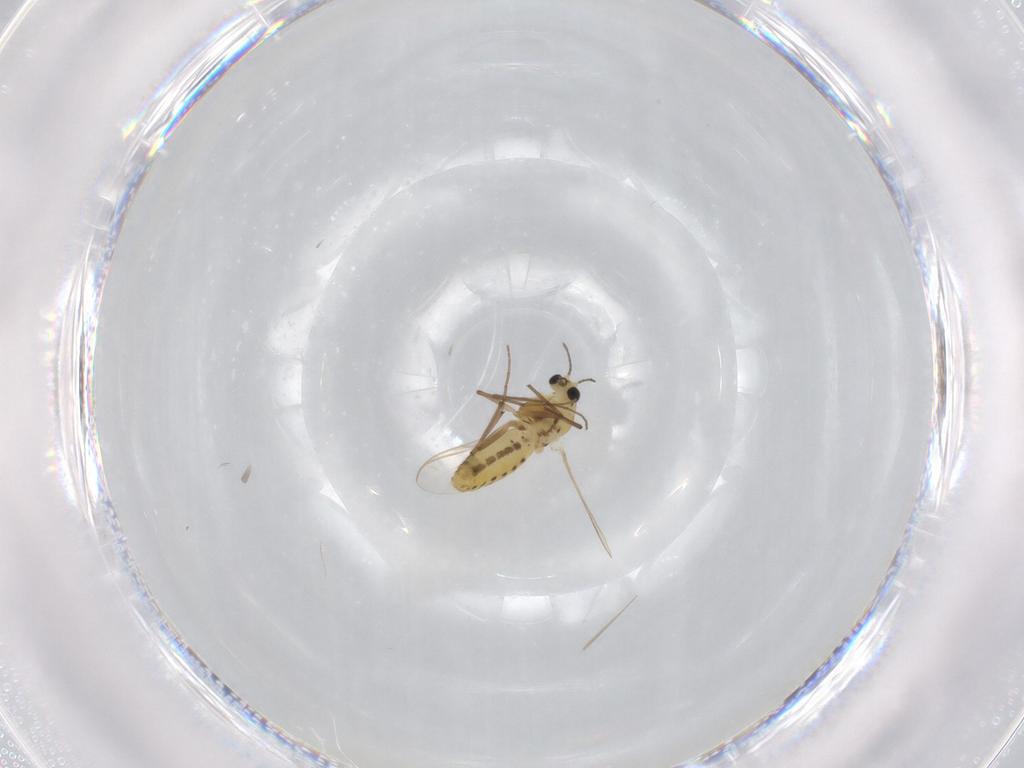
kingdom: Animalia
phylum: Arthropoda
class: Insecta
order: Diptera
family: Chironomidae
